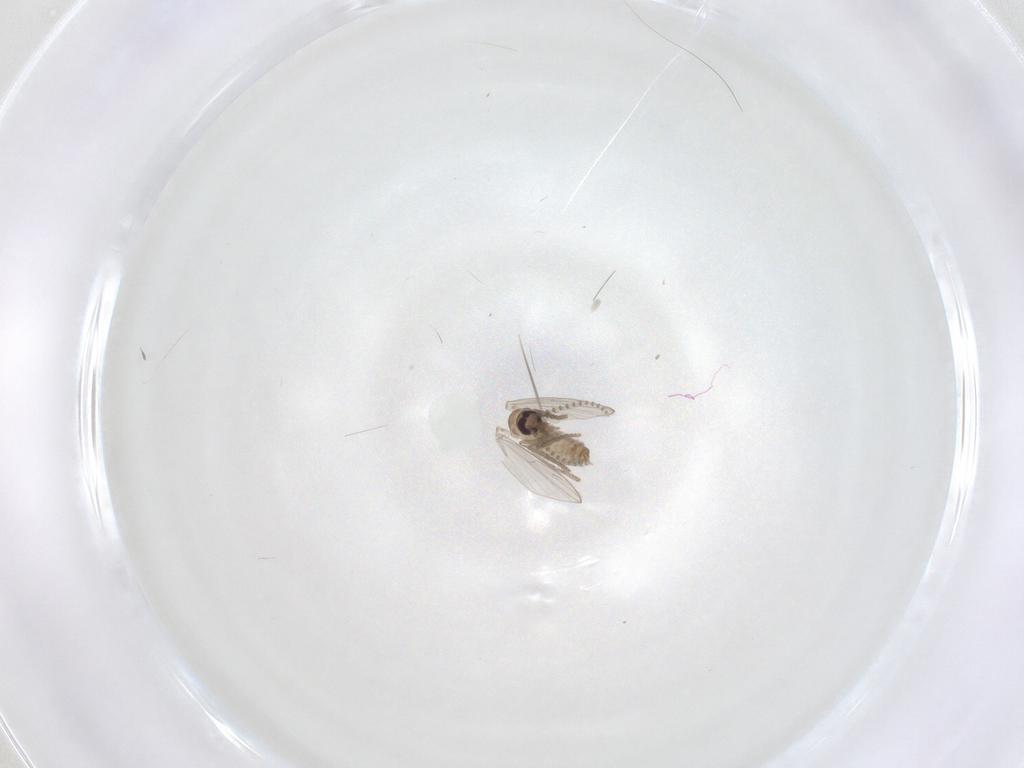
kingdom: Animalia
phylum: Arthropoda
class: Insecta
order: Diptera
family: Psychodidae
